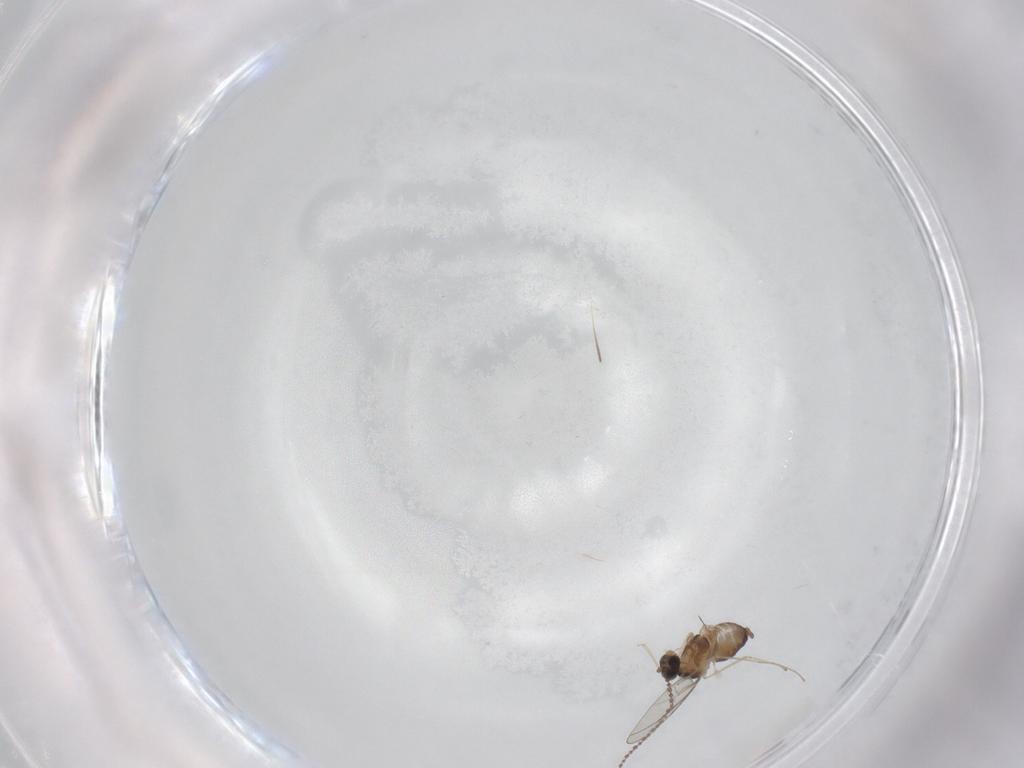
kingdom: Animalia
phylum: Arthropoda
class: Insecta
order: Diptera
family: Cecidomyiidae
